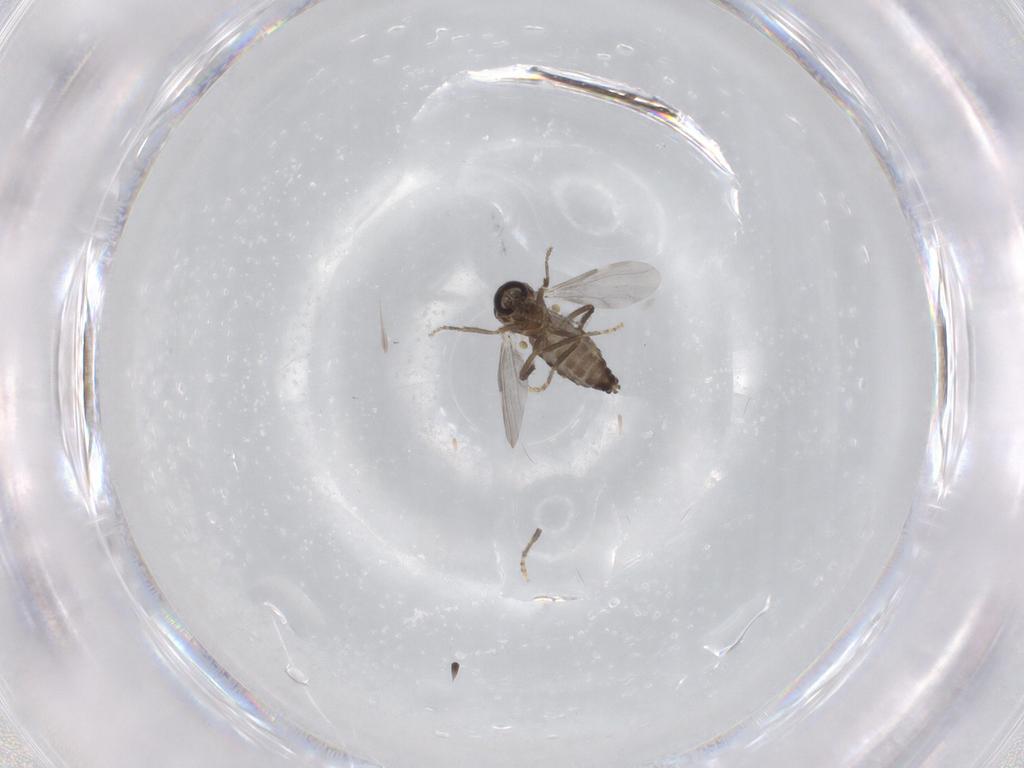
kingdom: Animalia
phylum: Arthropoda
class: Insecta
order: Diptera
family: Ceratopogonidae
